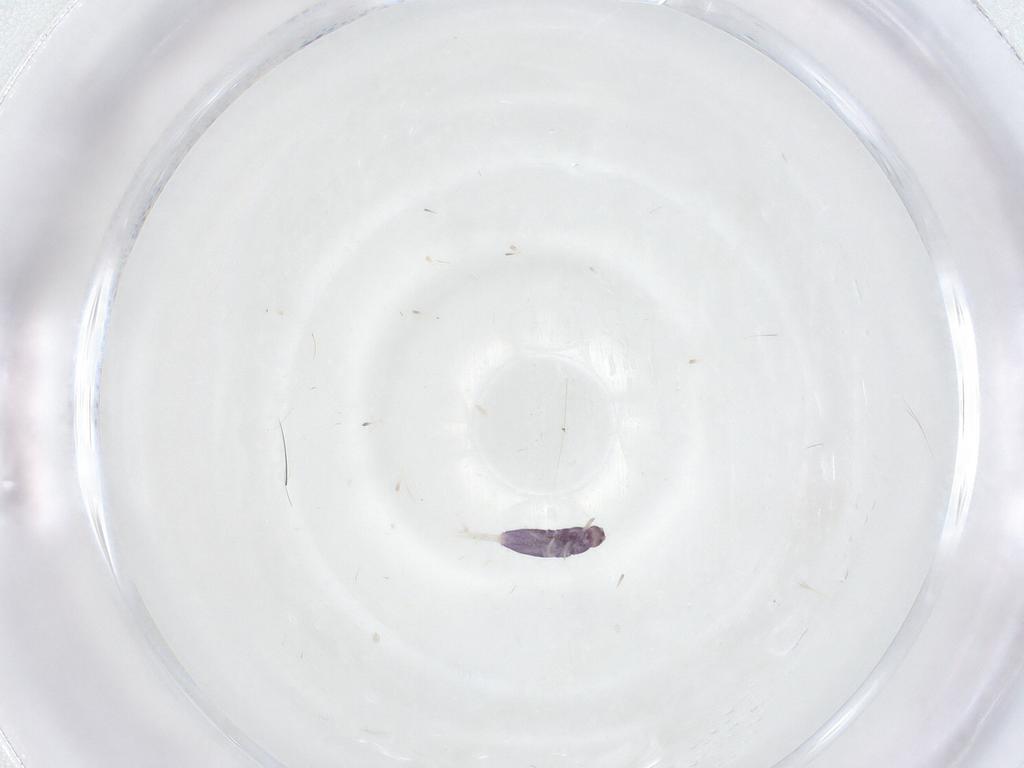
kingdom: Animalia
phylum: Arthropoda
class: Collembola
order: Entomobryomorpha
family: Entomobryidae
